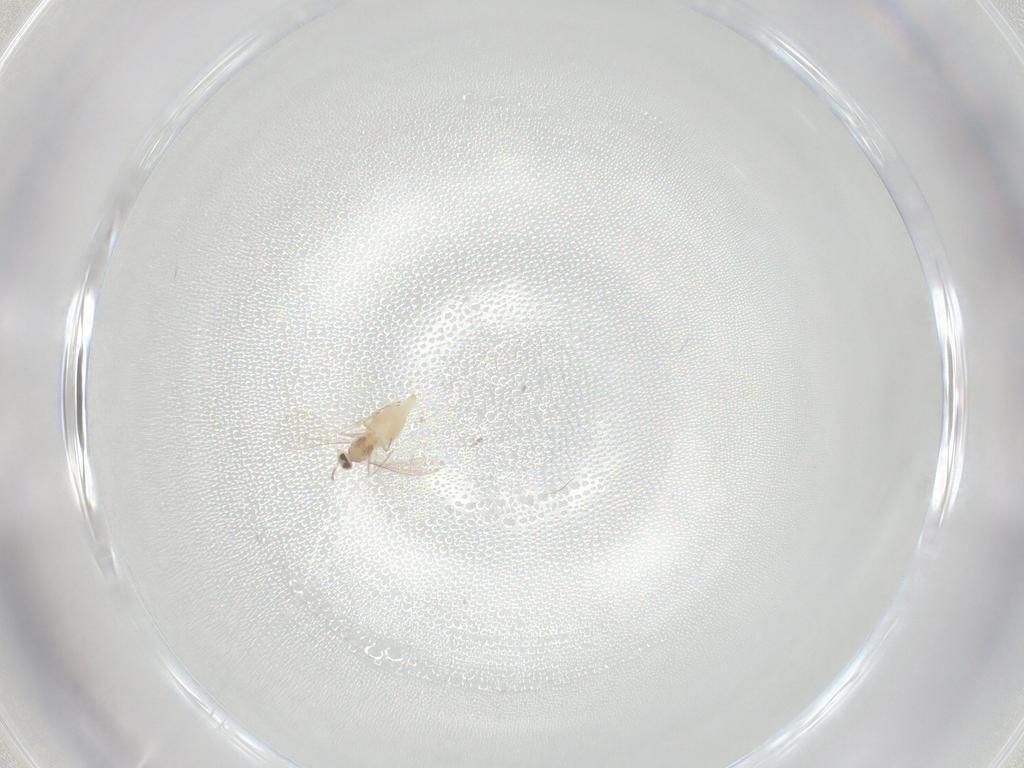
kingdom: Animalia
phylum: Arthropoda
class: Insecta
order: Diptera
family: Cecidomyiidae
